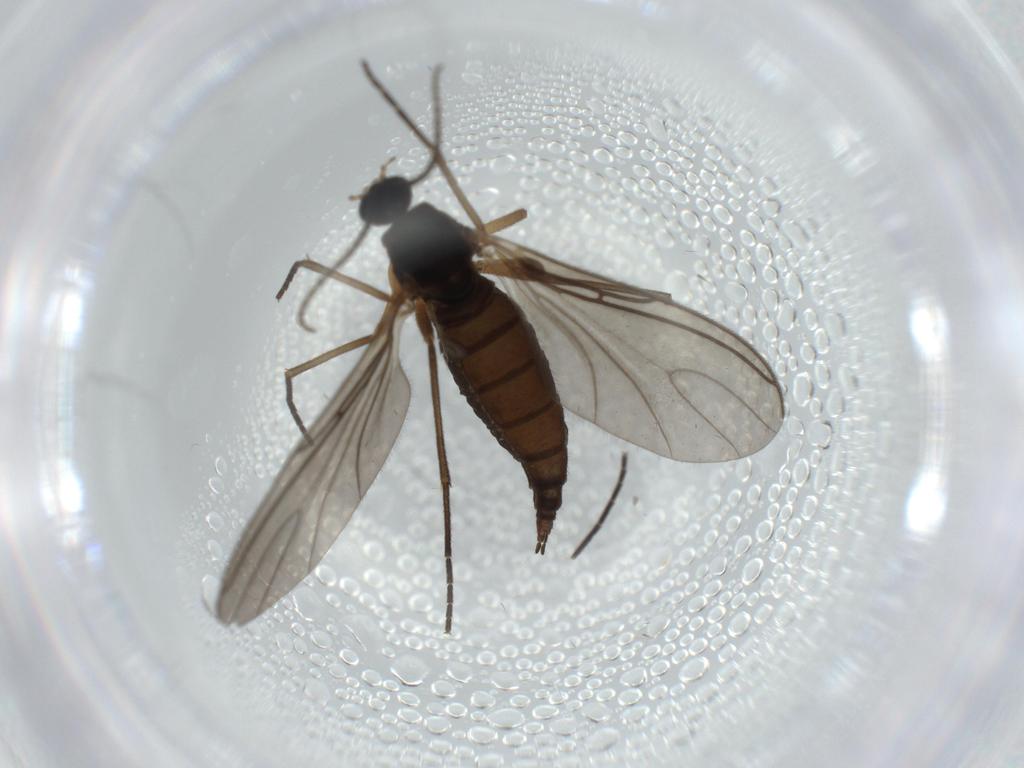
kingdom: Animalia
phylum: Arthropoda
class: Insecta
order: Diptera
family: Sciaridae
